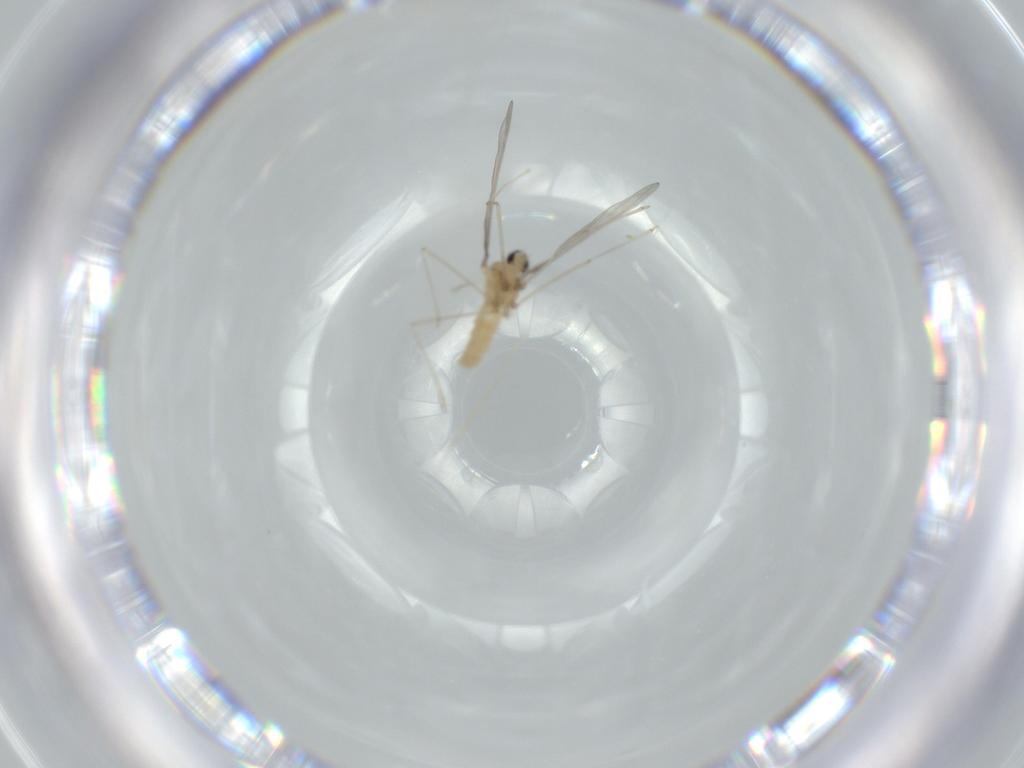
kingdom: Animalia
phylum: Arthropoda
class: Insecta
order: Diptera
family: Cecidomyiidae
